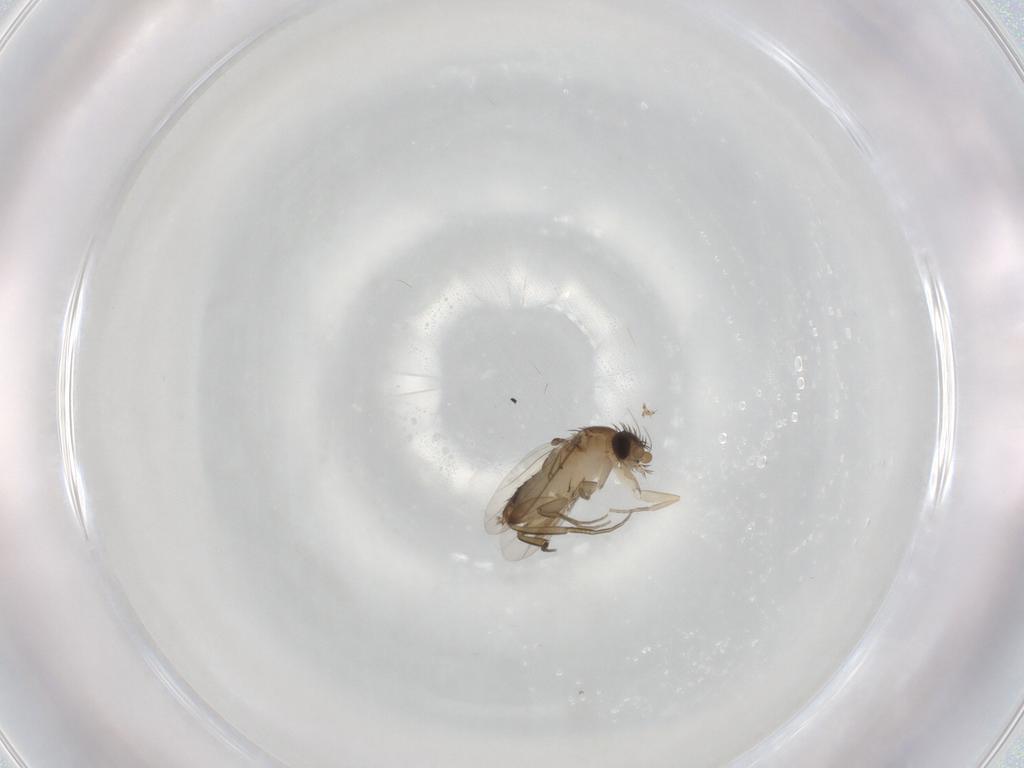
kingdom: Animalia
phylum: Arthropoda
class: Insecta
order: Diptera
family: Phoridae
